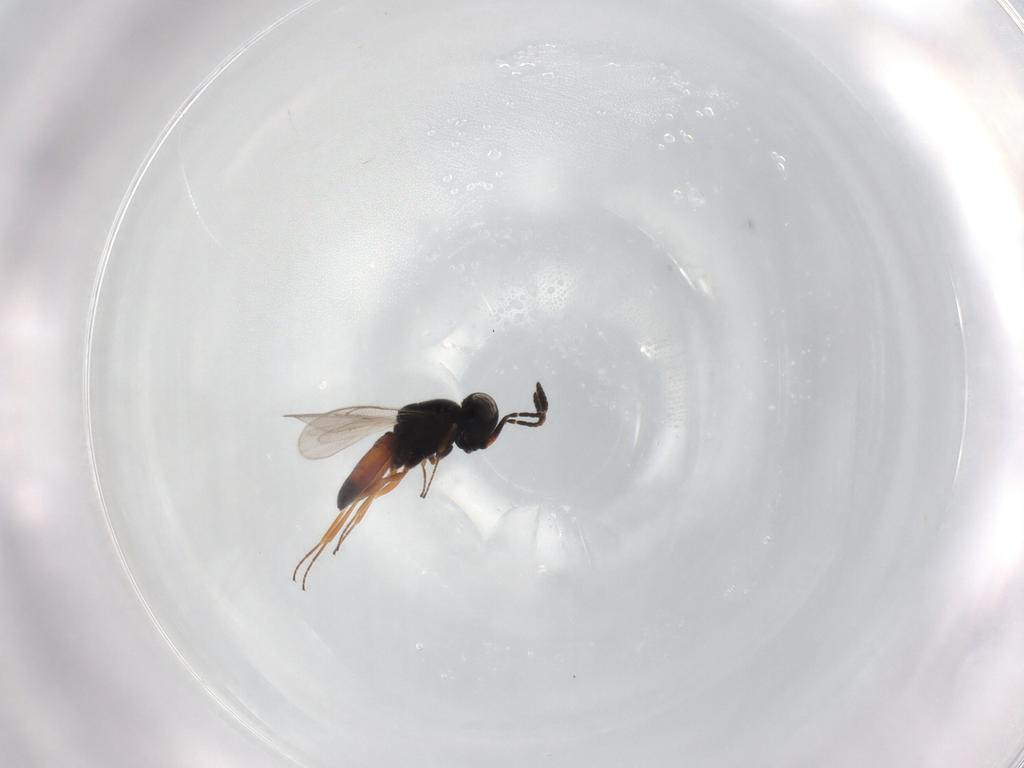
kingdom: Animalia
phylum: Arthropoda
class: Insecta
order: Hymenoptera
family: Scelionidae
